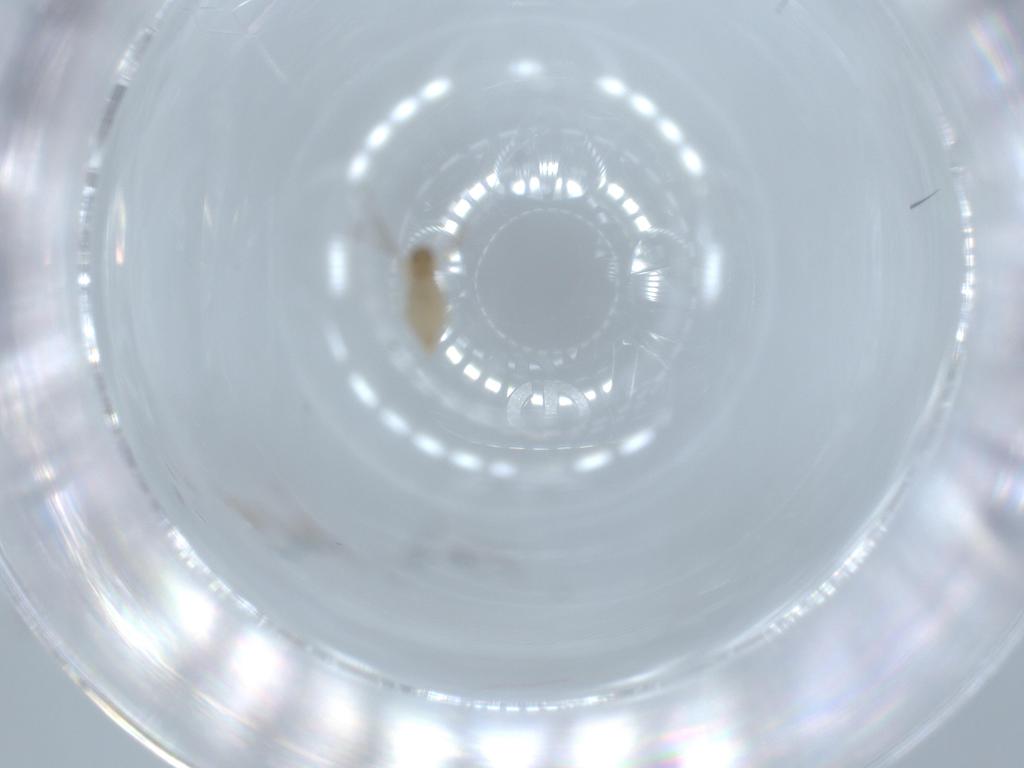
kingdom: Animalia
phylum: Arthropoda
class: Insecta
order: Diptera
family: Cecidomyiidae
